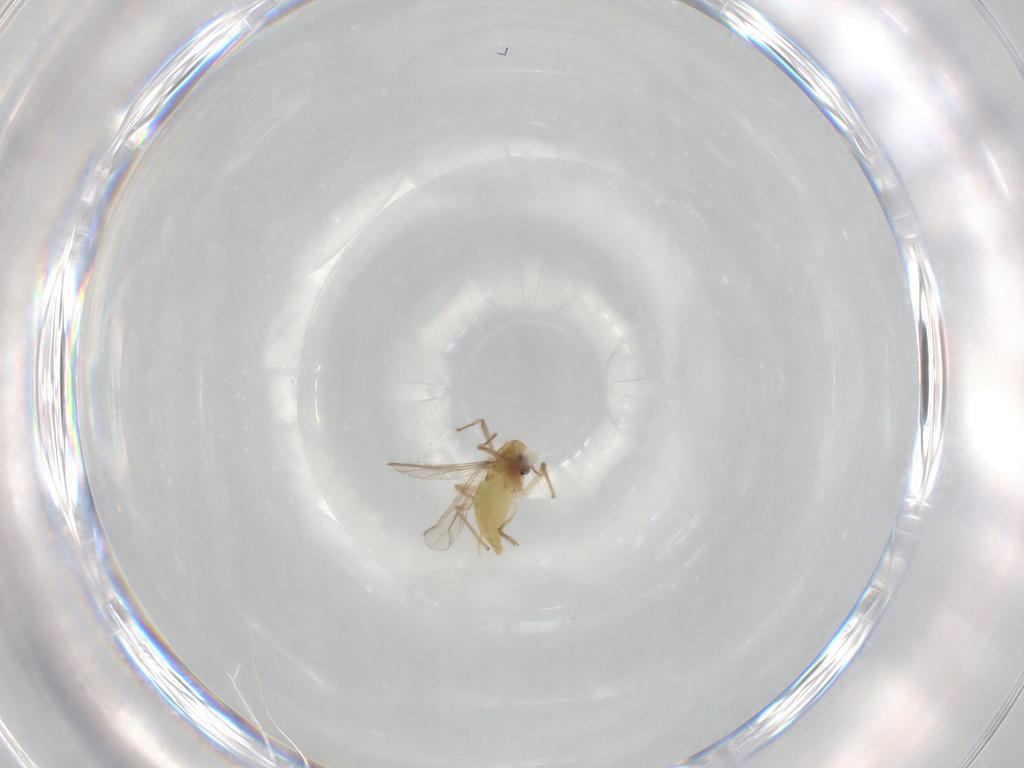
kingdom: Animalia
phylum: Arthropoda
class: Insecta
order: Diptera
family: Chironomidae
